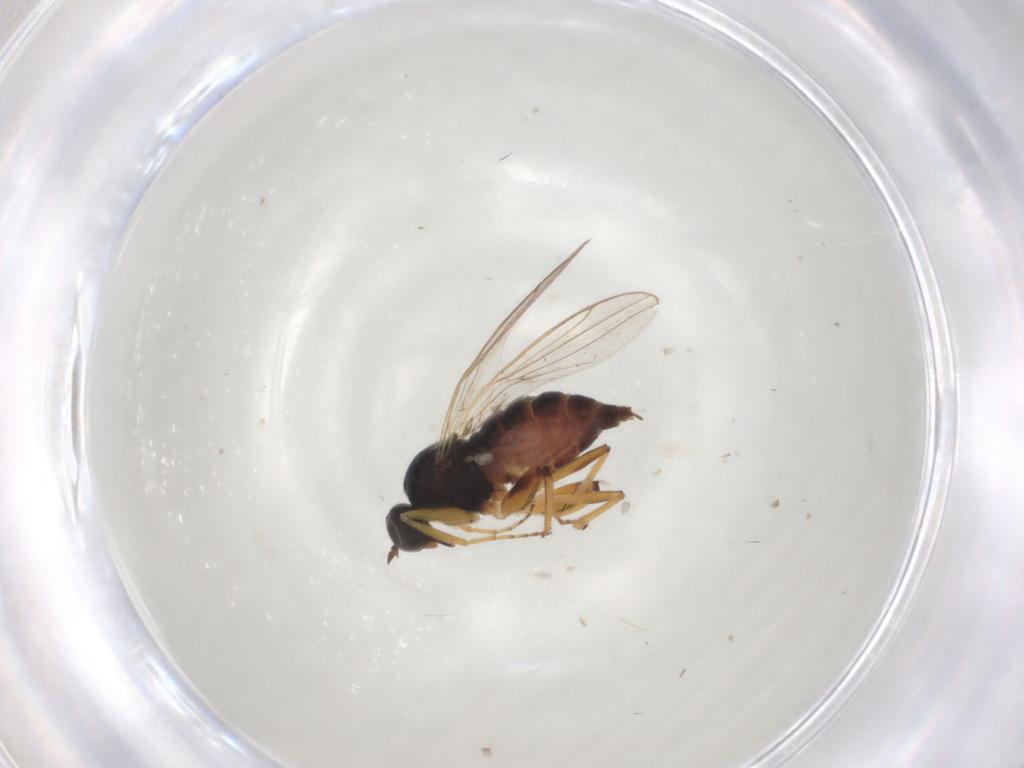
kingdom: Animalia
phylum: Arthropoda
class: Insecta
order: Diptera
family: Hybotidae
